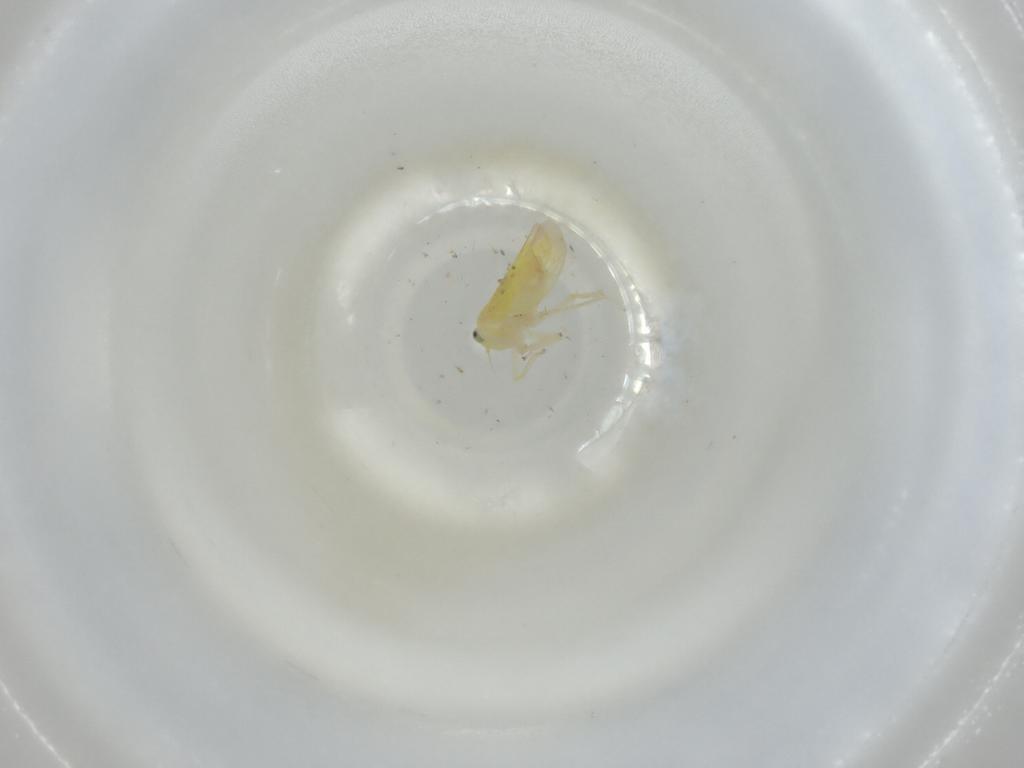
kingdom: Animalia
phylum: Arthropoda
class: Insecta
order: Hemiptera
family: Cicadellidae
